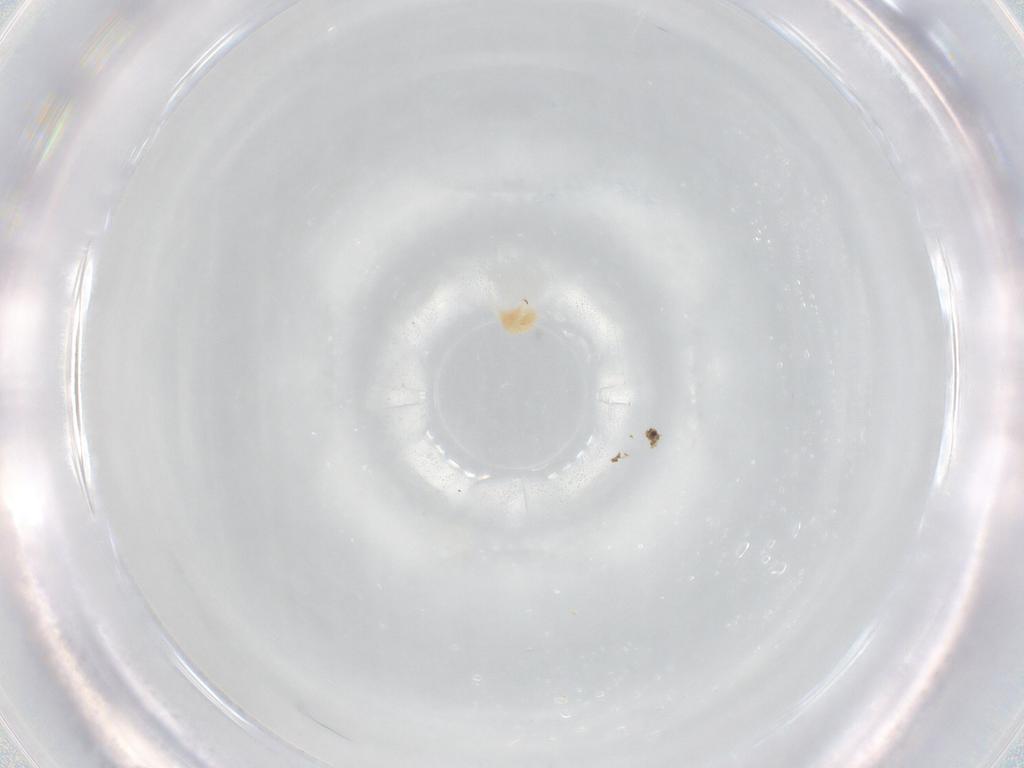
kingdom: Animalia
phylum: Arthropoda
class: Arachnida
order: Trombidiformes
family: Tetranychidae
